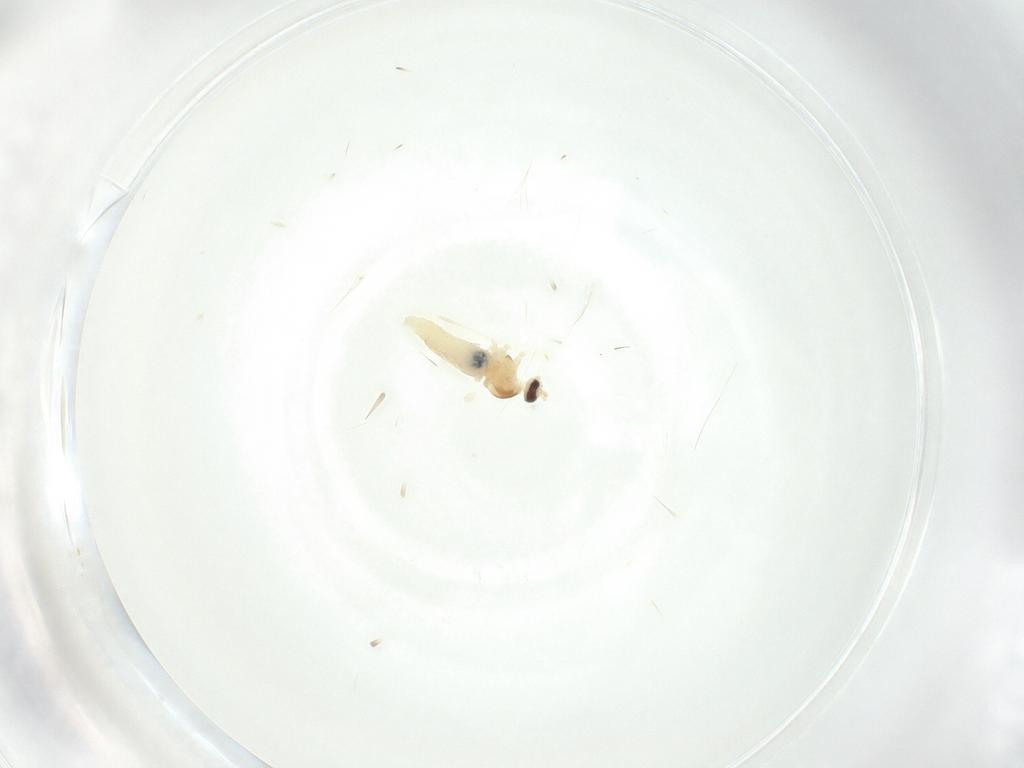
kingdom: Animalia
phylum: Arthropoda
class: Insecta
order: Diptera
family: Cecidomyiidae
